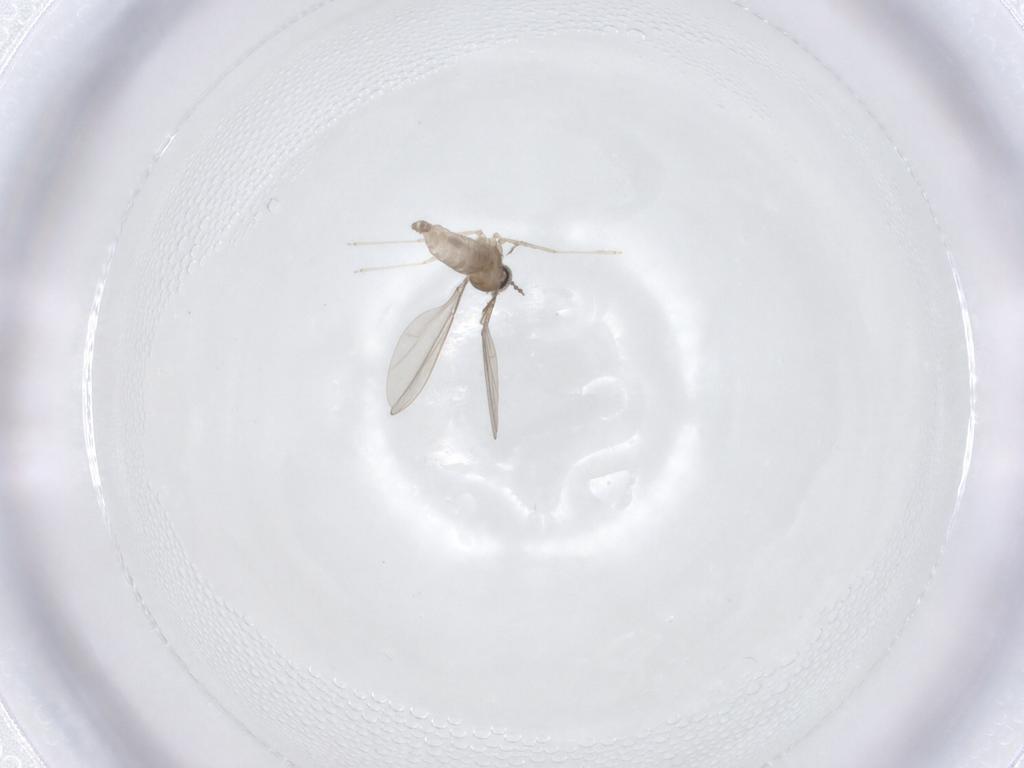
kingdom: Animalia
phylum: Arthropoda
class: Insecta
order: Diptera
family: Cecidomyiidae
